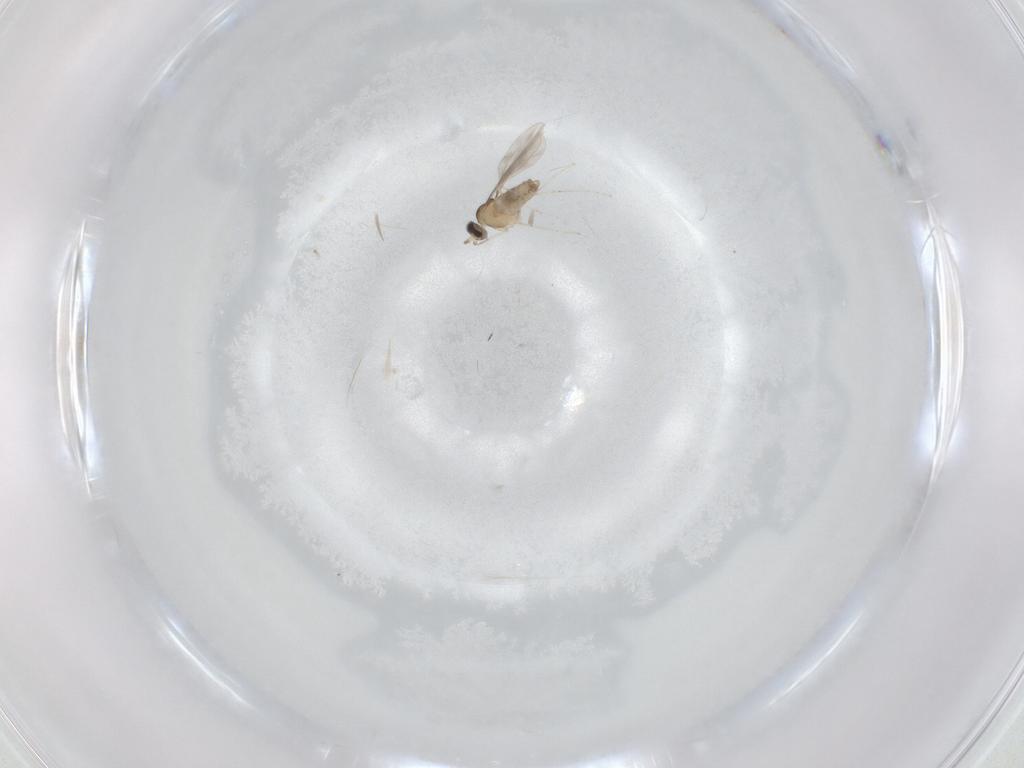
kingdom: Animalia
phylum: Arthropoda
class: Insecta
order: Diptera
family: Cecidomyiidae
